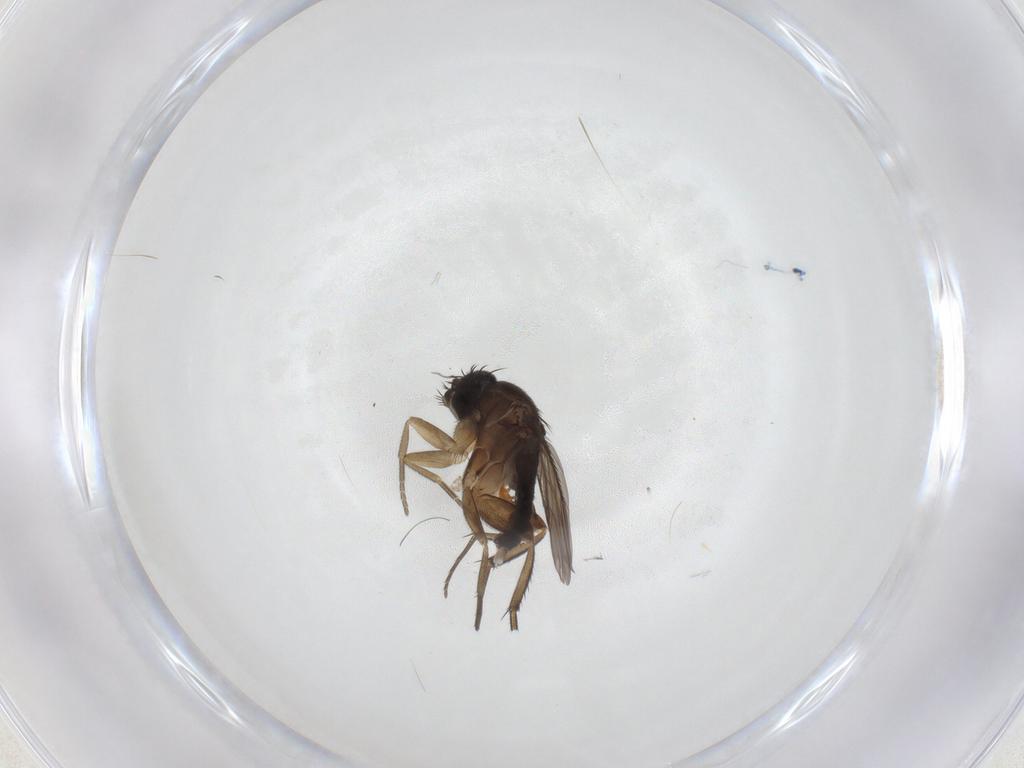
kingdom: Animalia
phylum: Arthropoda
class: Insecta
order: Diptera
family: Phoridae
